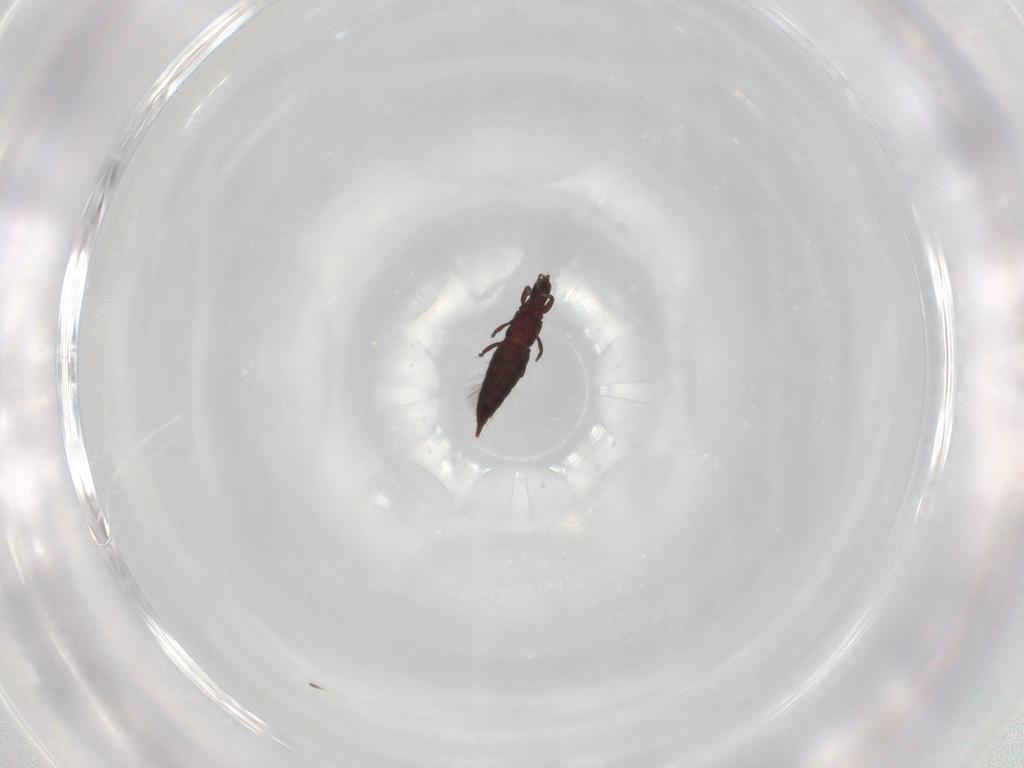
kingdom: Animalia
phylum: Arthropoda
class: Insecta
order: Thysanoptera
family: Phlaeothripidae
